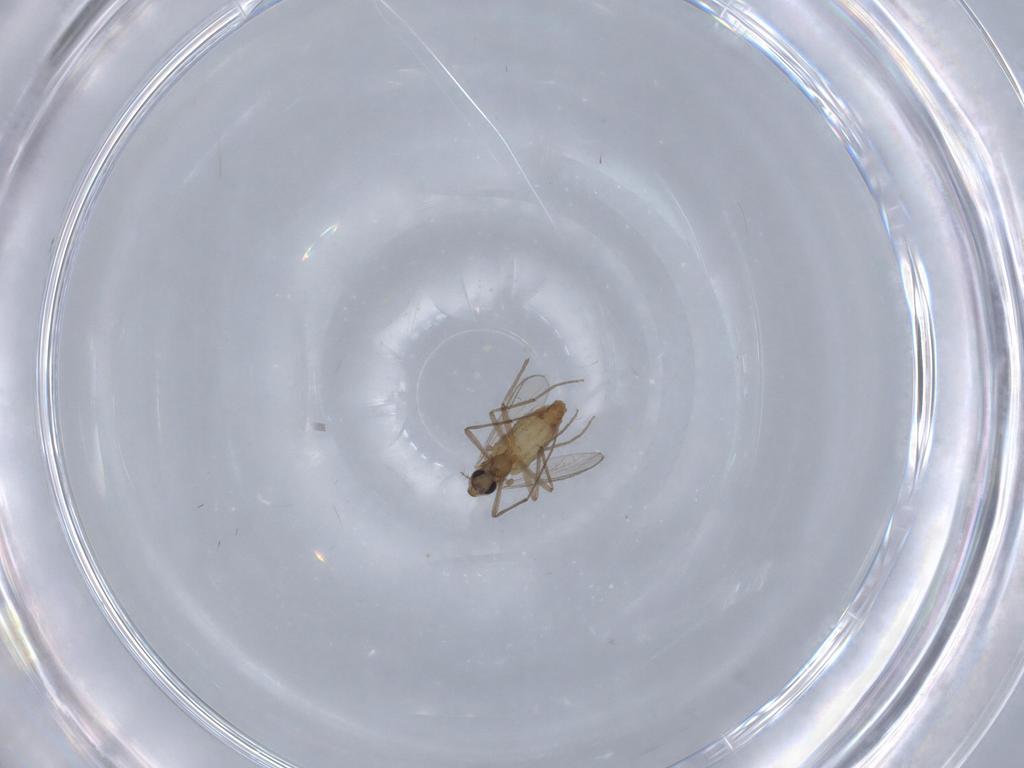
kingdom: Animalia
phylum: Arthropoda
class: Insecta
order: Diptera
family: Chironomidae
